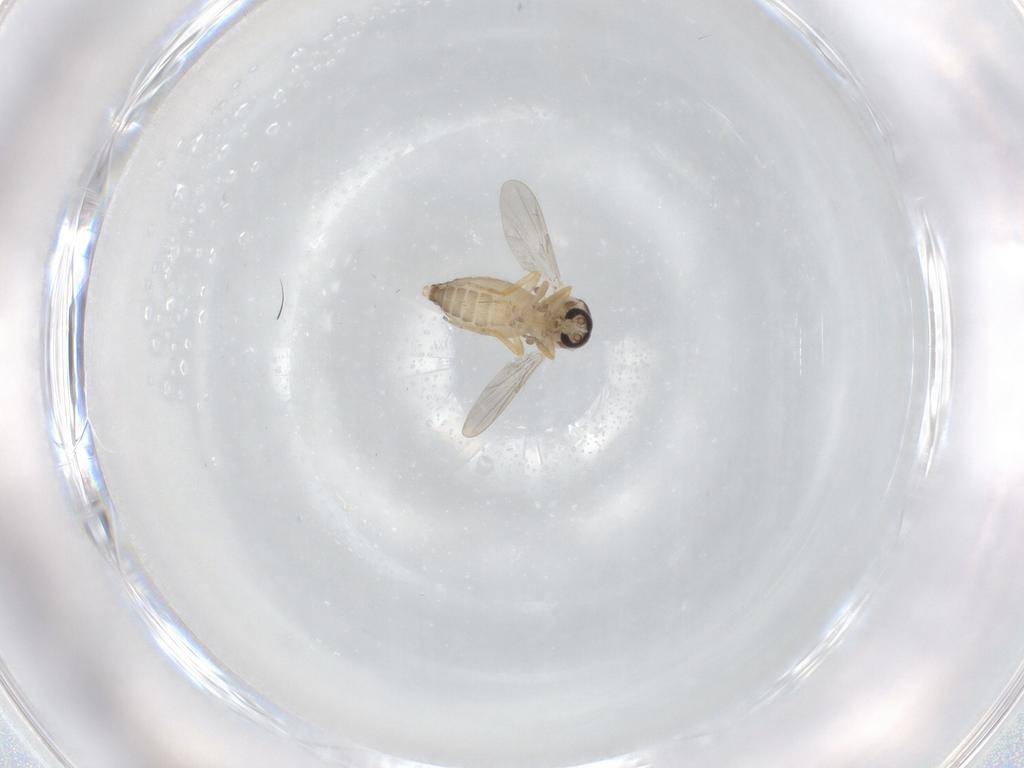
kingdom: Animalia
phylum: Arthropoda
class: Insecta
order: Diptera
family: Ceratopogonidae
